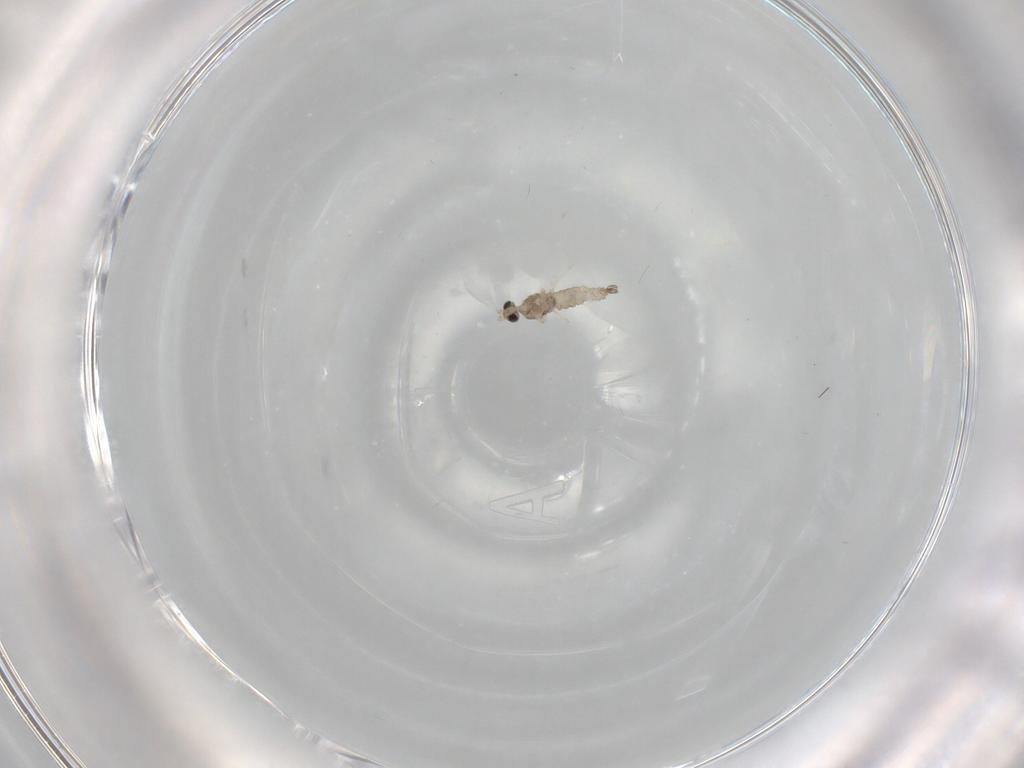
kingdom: Animalia
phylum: Arthropoda
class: Insecta
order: Diptera
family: Cecidomyiidae
